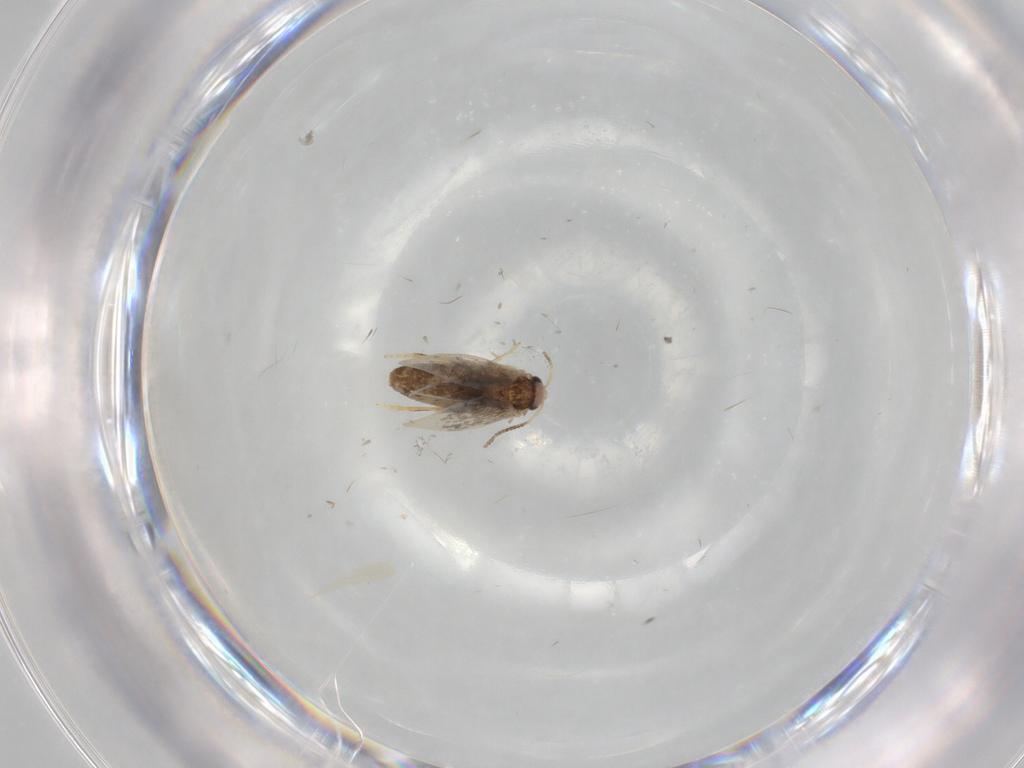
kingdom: Animalia
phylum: Arthropoda
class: Insecta
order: Lepidoptera
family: Nepticulidae
